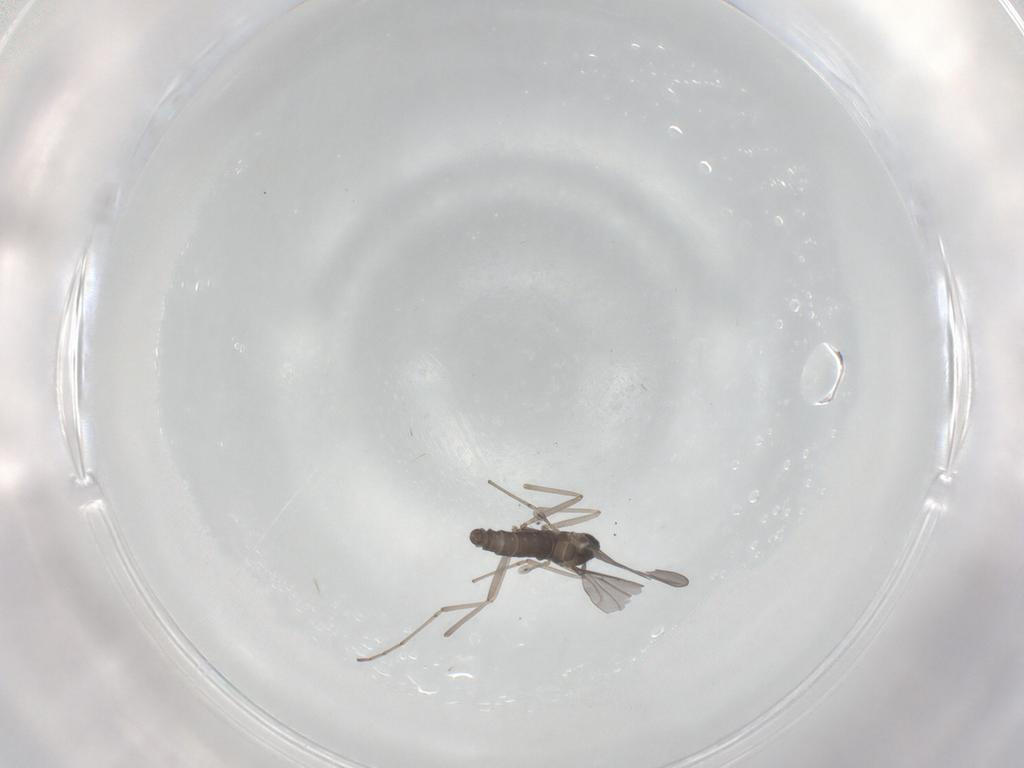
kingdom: Animalia
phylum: Arthropoda
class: Insecta
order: Diptera
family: Cecidomyiidae
